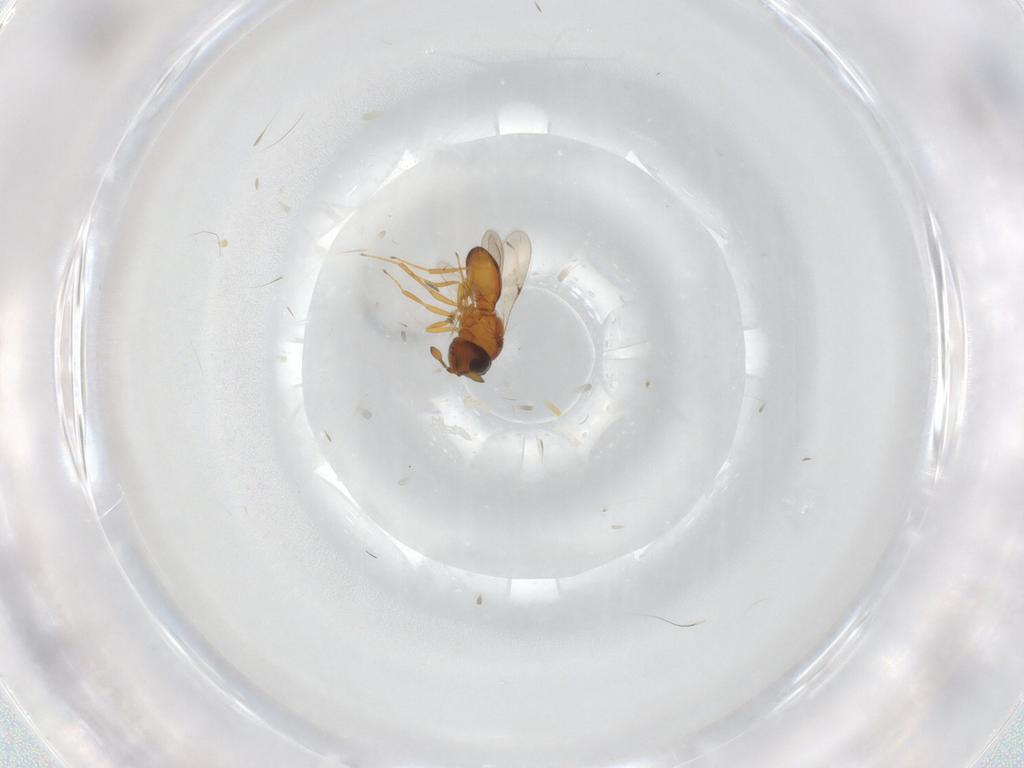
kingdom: Animalia
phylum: Arthropoda
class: Insecta
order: Hymenoptera
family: Scelionidae
